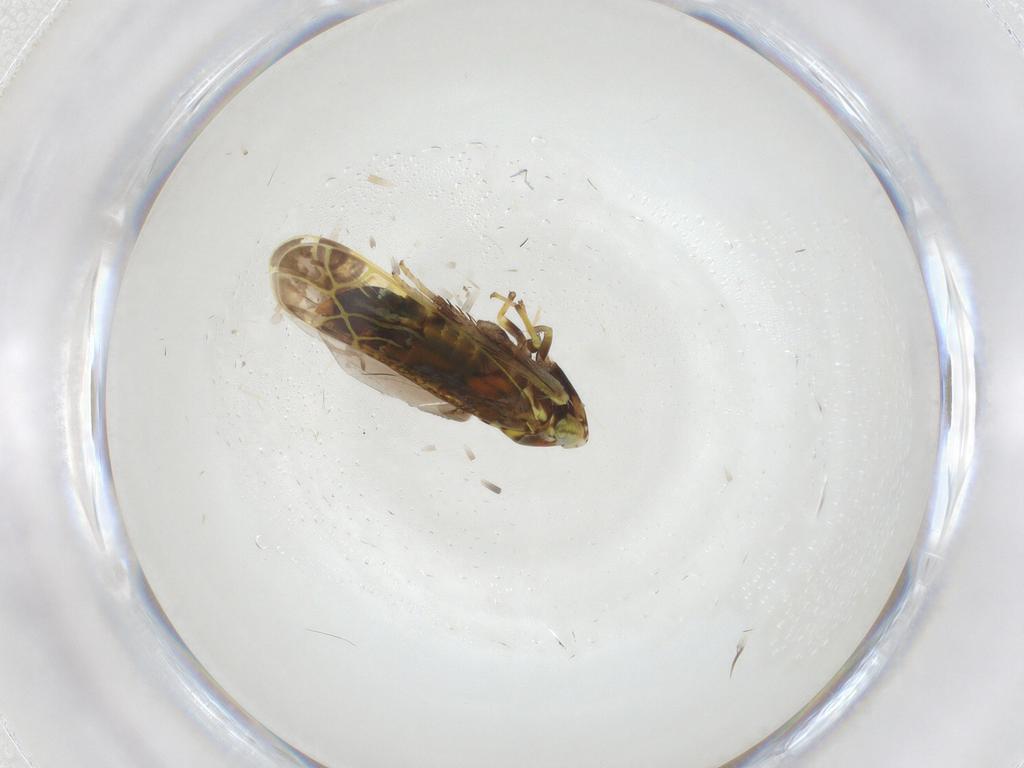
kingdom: Animalia
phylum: Arthropoda
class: Insecta
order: Hemiptera
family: Cicadellidae
